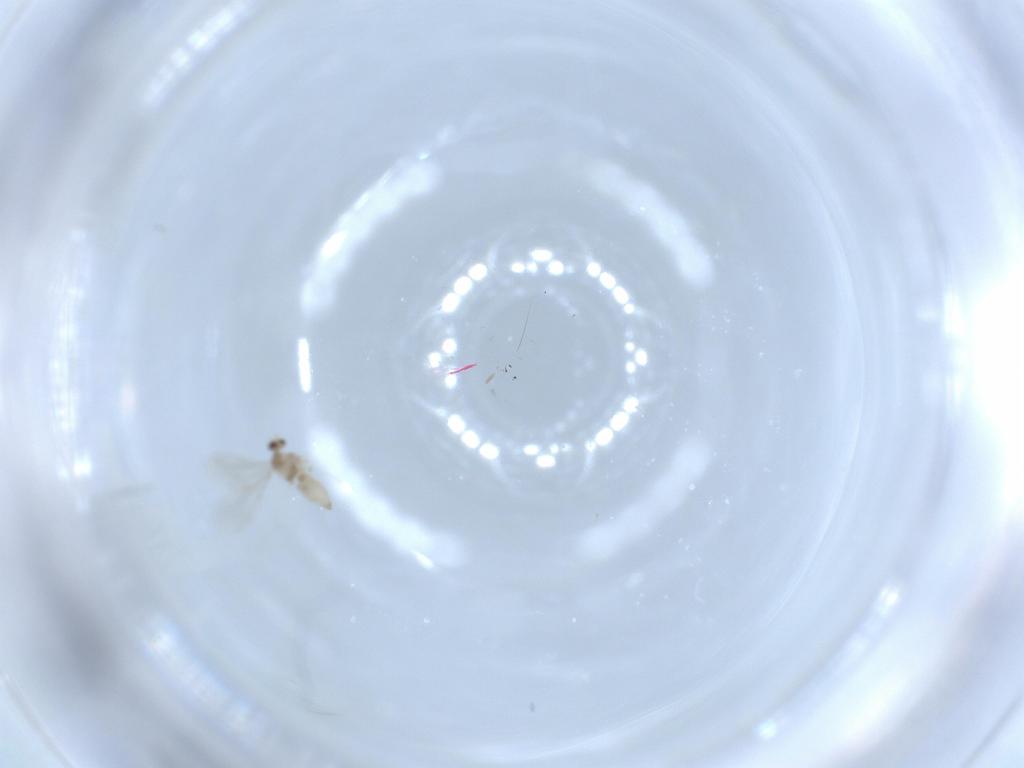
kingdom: Animalia
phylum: Arthropoda
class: Insecta
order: Diptera
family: Cecidomyiidae
